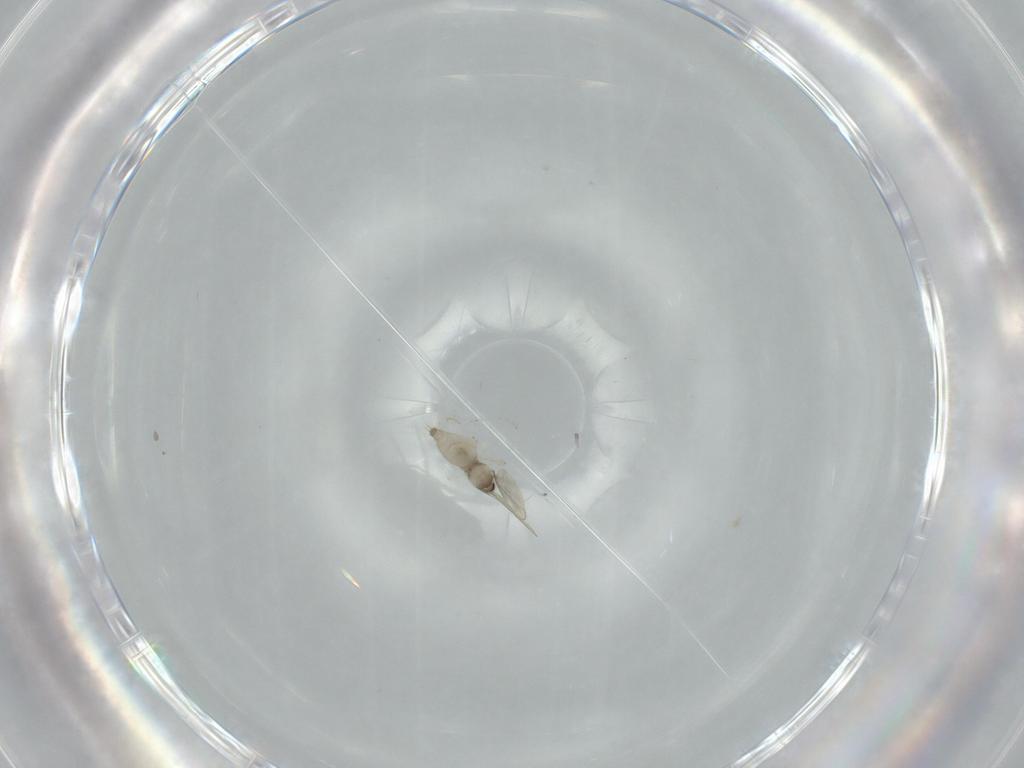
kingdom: Animalia
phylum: Arthropoda
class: Insecta
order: Diptera
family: Cecidomyiidae
